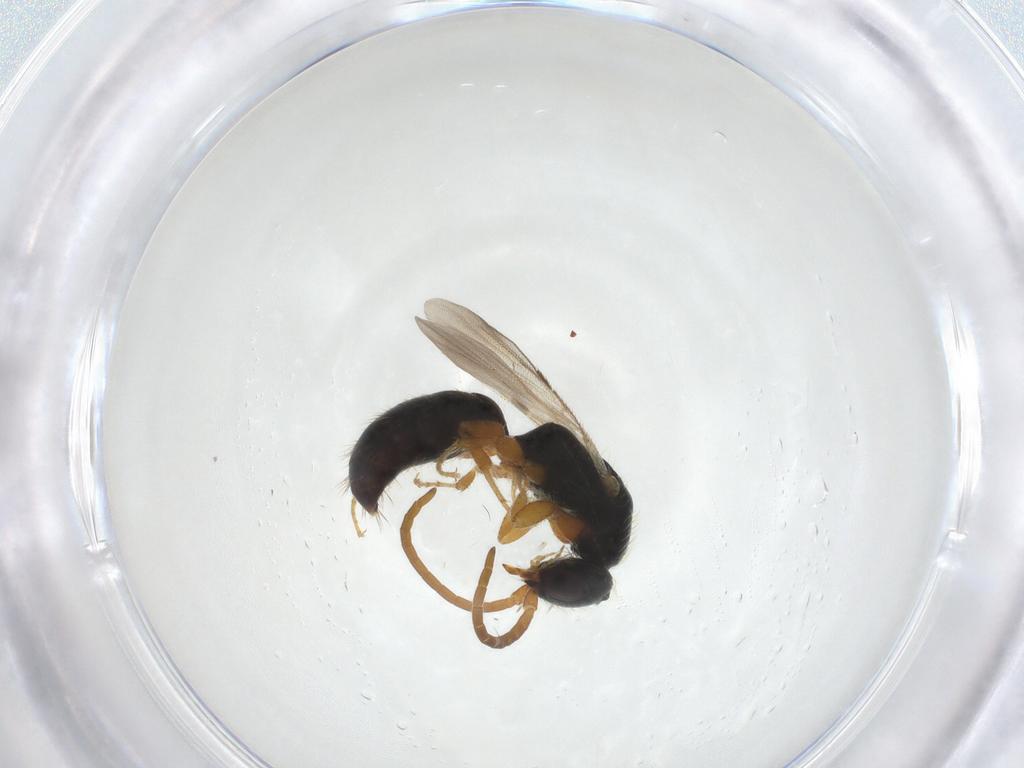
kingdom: Animalia
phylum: Arthropoda
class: Insecta
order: Hymenoptera
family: Bethylidae
